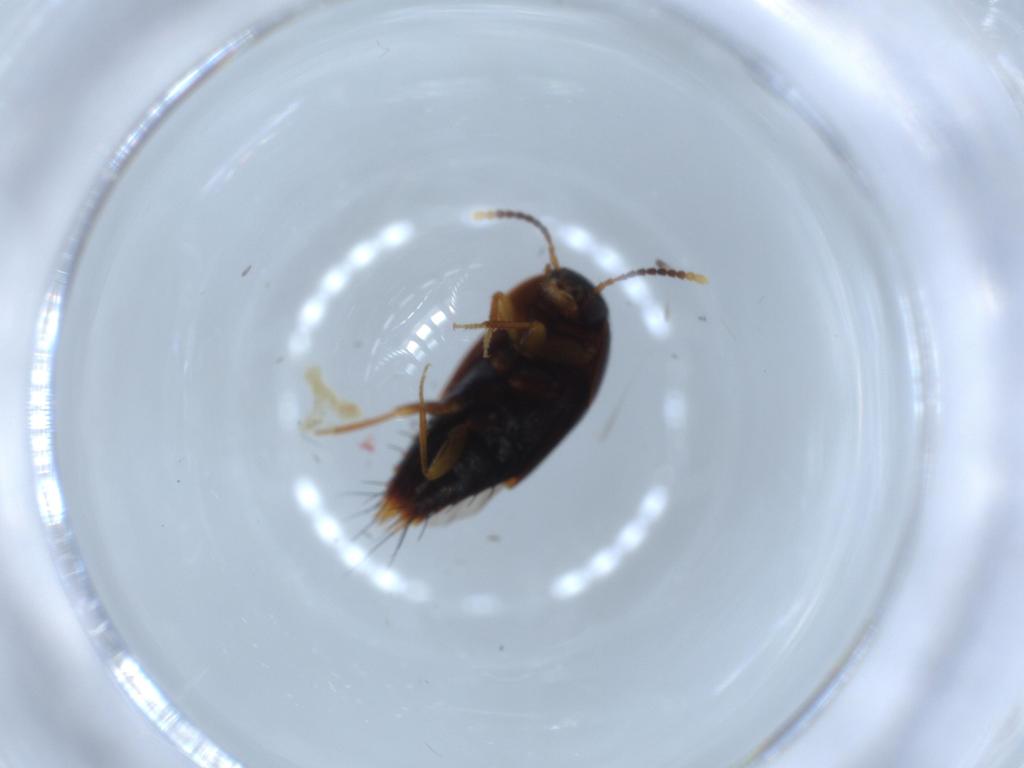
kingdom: Animalia
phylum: Arthropoda
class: Insecta
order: Coleoptera
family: Staphylinidae
